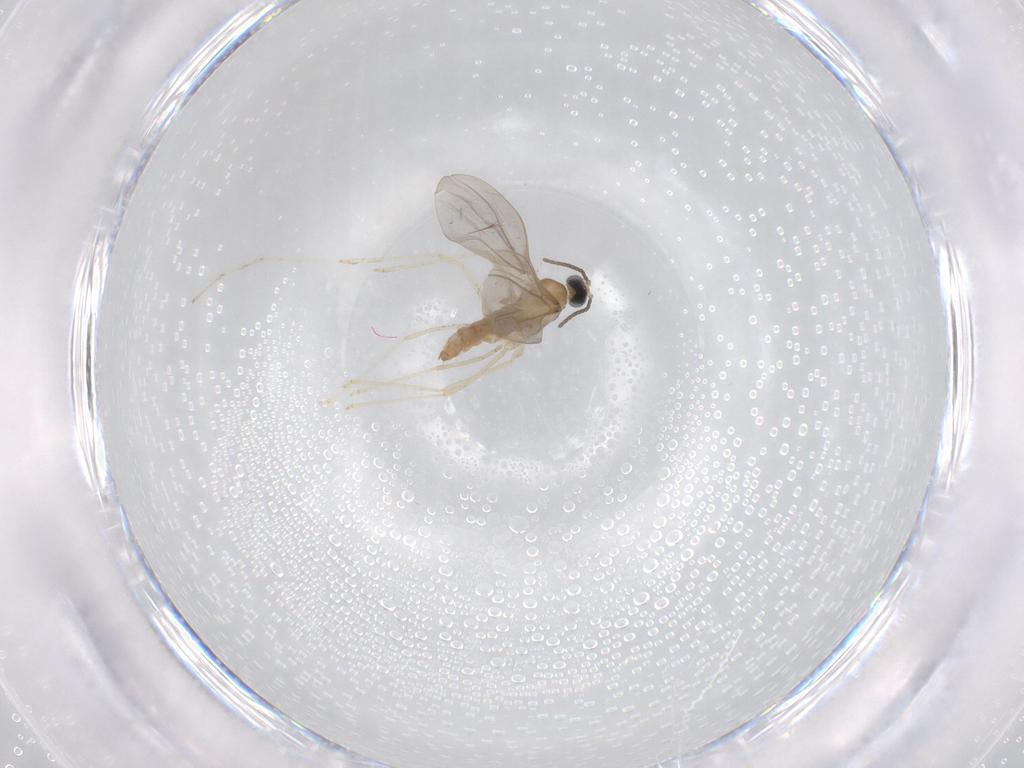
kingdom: Animalia
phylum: Arthropoda
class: Insecta
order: Diptera
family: Cecidomyiidae
